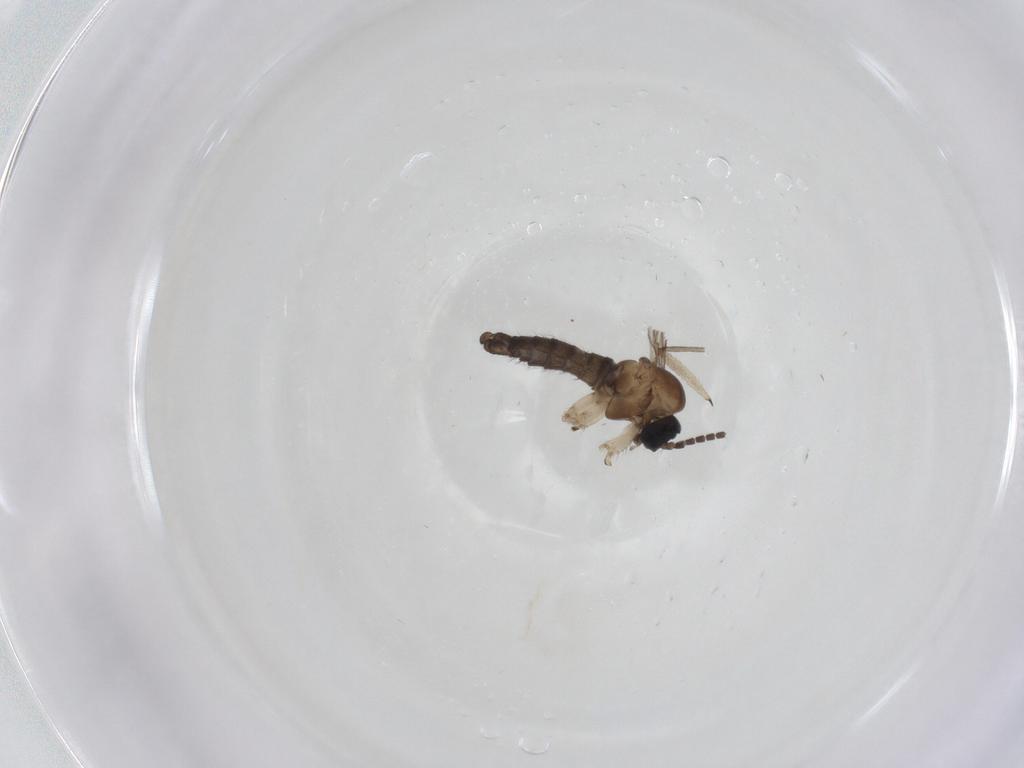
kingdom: Animalia
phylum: Arthropoda
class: Insecta
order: Diptera
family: Sciaridae
